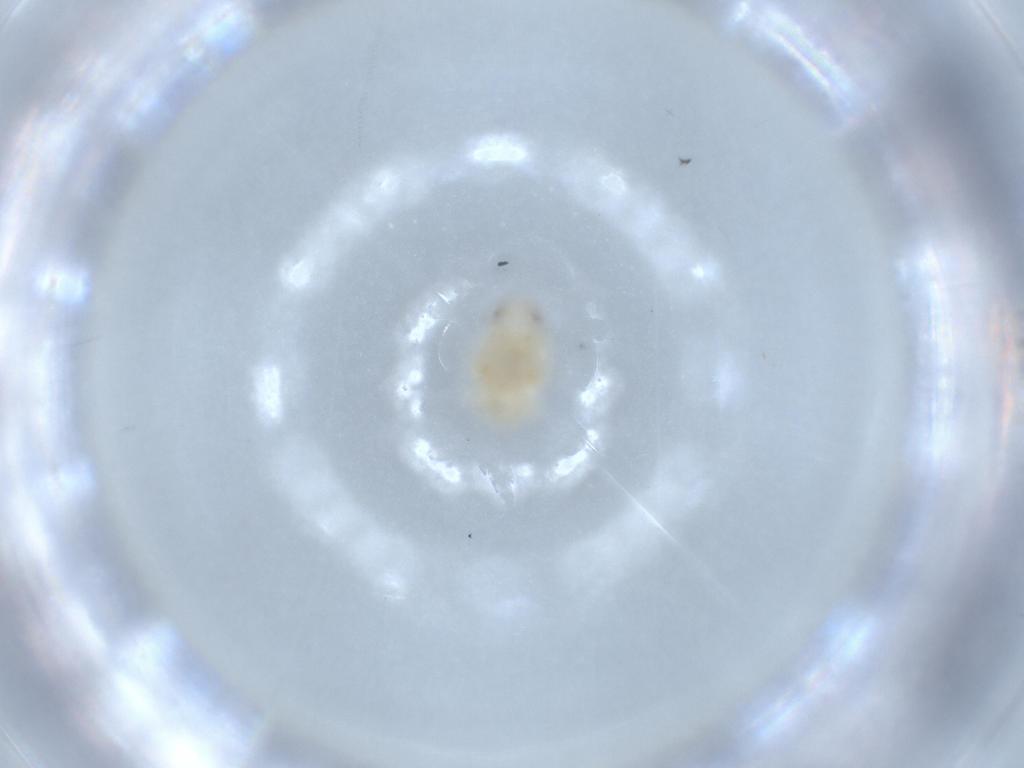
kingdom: Animalia
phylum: Arthropoda
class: Insecta
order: Hemiptera
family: Nogodinidae
